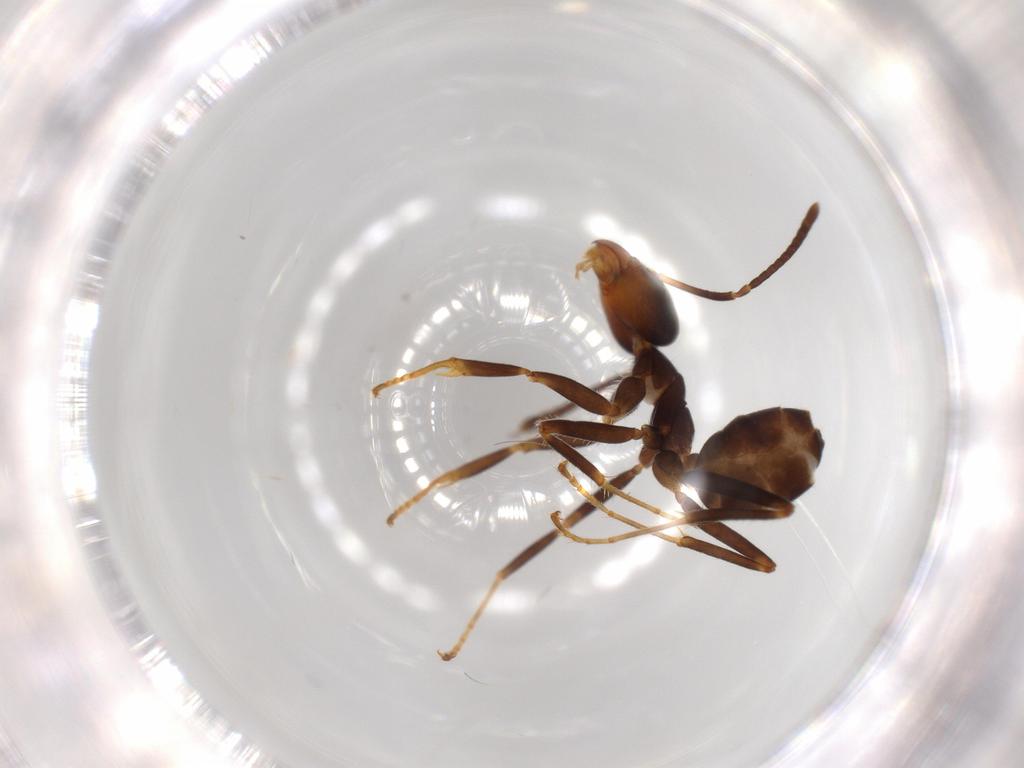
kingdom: Animalia
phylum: Arthropoda
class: Insecta
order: Hymenoptera
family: Formicidae
